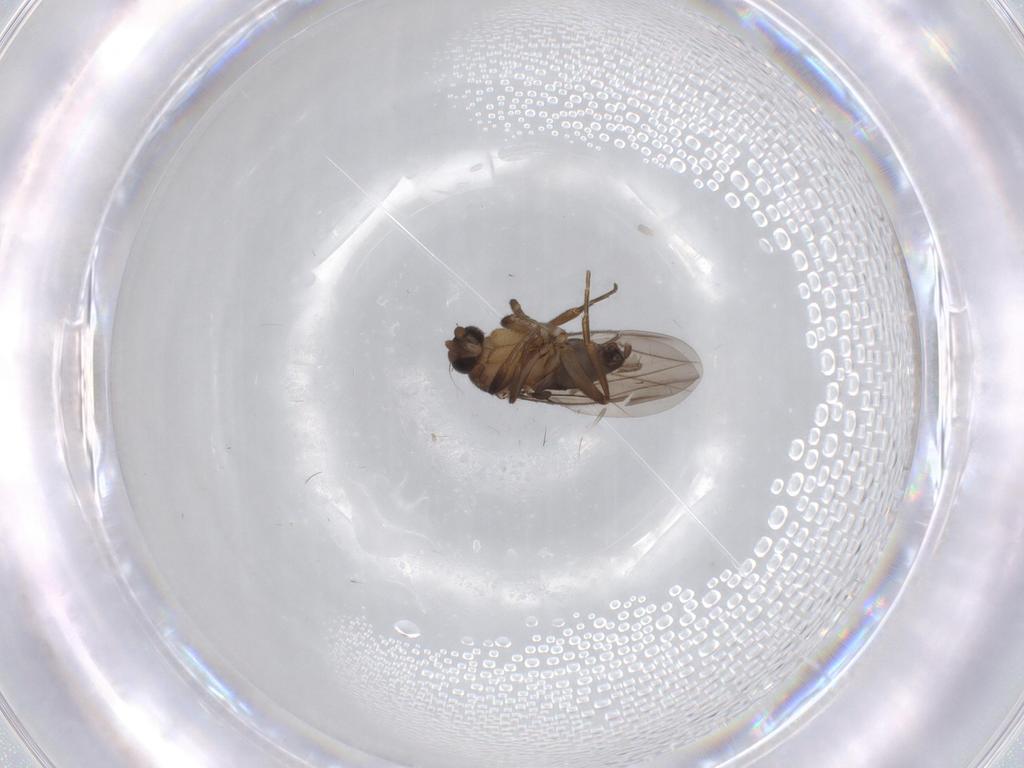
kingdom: Animalia
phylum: Arthropoda
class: Insecta
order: Diptera
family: Phoridae
